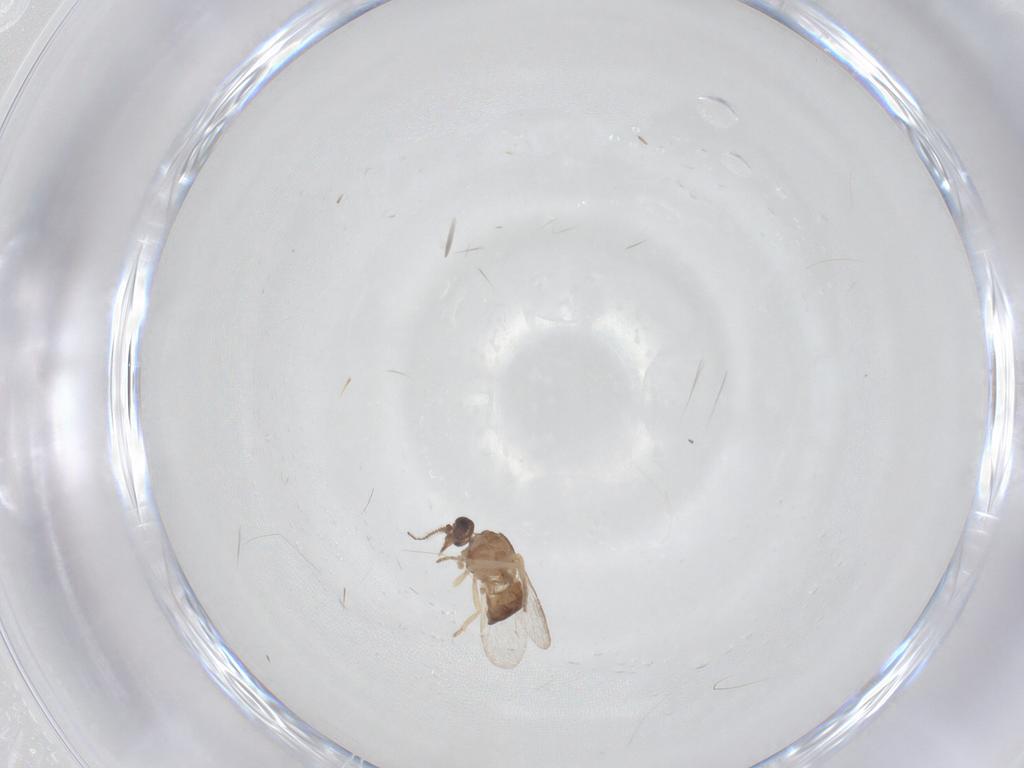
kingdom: Animalia
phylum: Arthropoda
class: Insecta
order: Diptera
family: Ceratopogonidae
